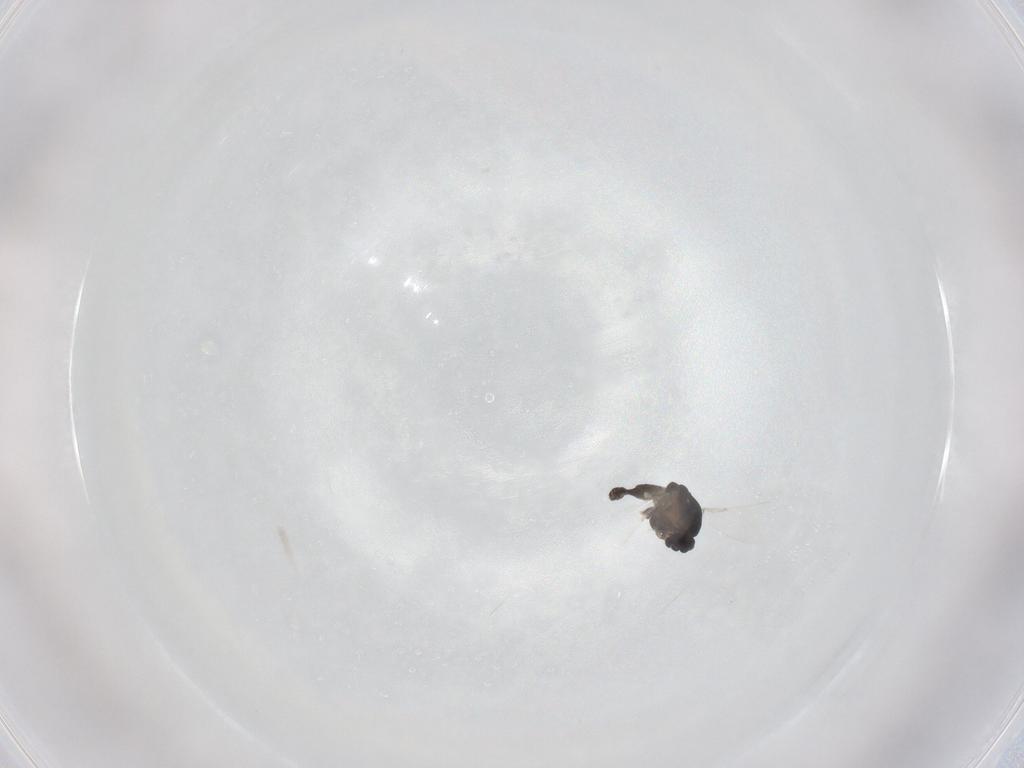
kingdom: Animalia
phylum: Arthropoda
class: Insecta
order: Diptera
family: Chironomidae
